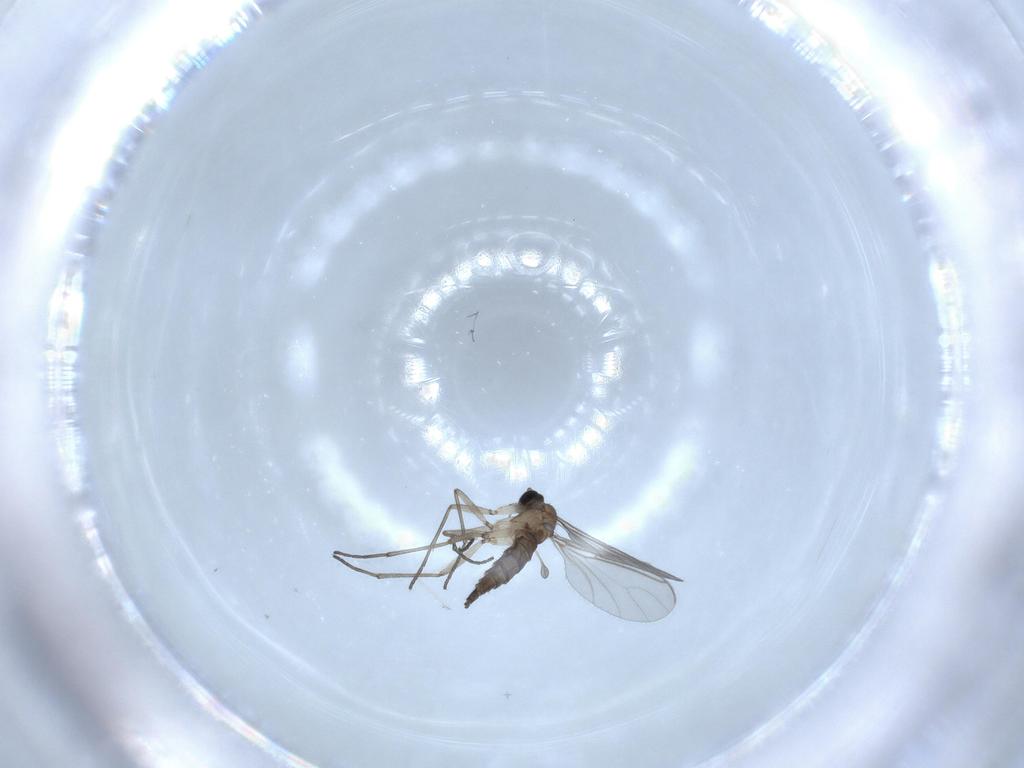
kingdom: Animalia
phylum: Arthropoda
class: Insecta
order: Diptera
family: Sciaridae
